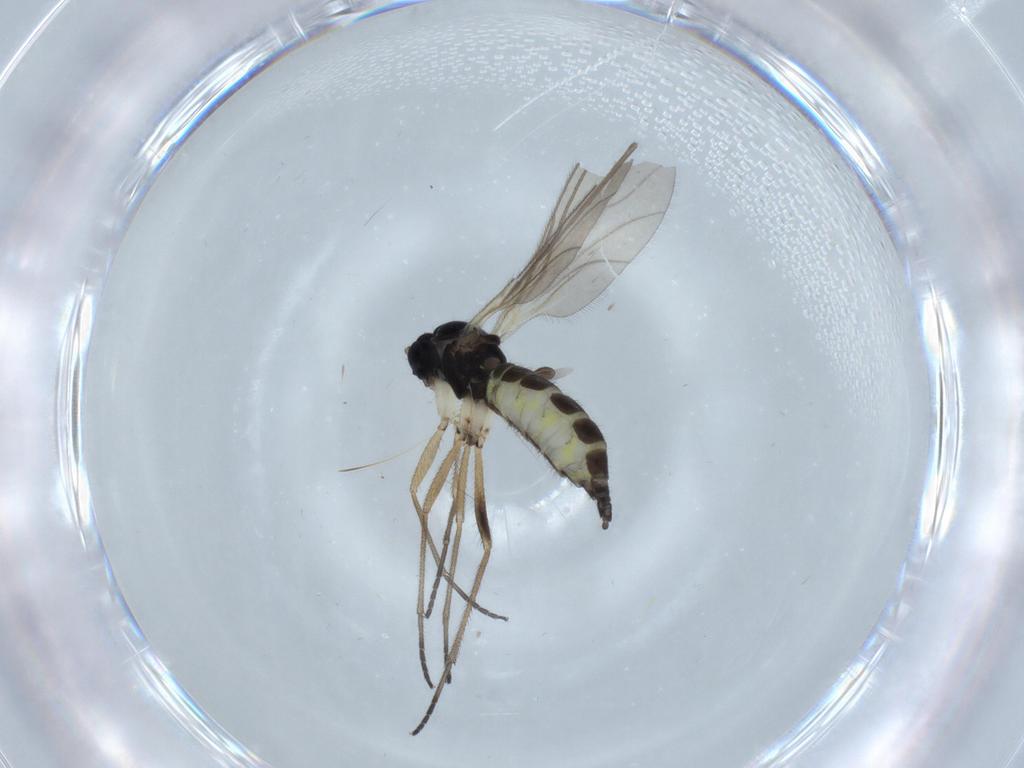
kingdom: Animalia
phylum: Arthropoda
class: Insecta
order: Diptera
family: Sciaridae
